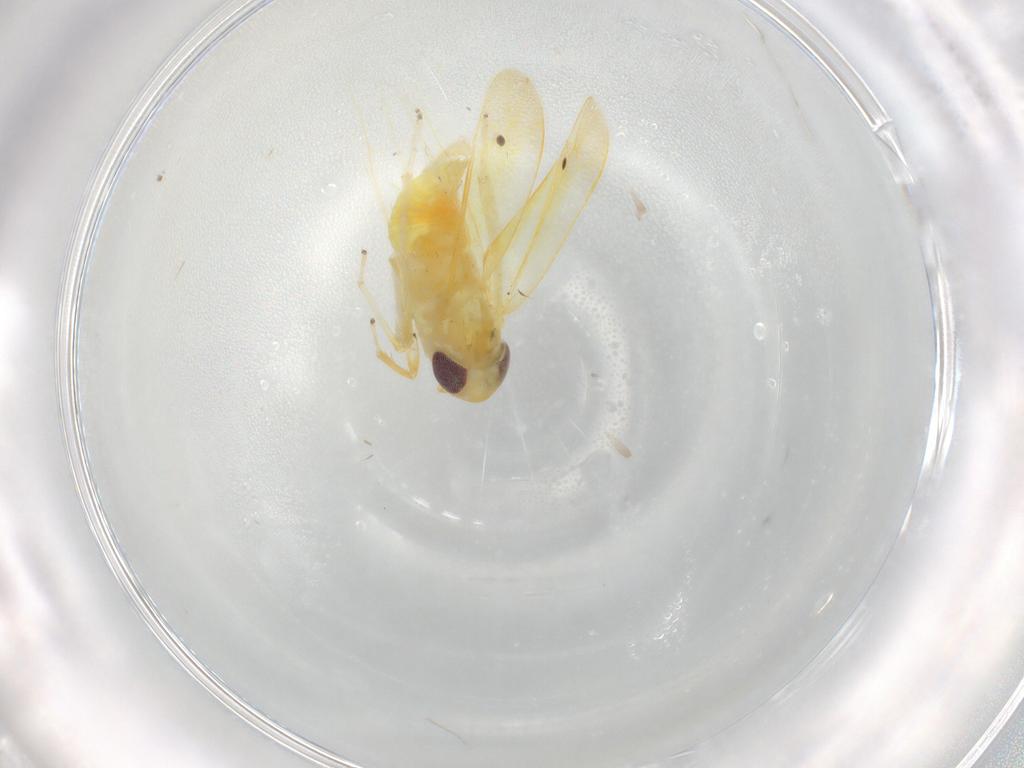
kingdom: Animalia
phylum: Arthropoda
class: Insecta
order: Hemiptera
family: Cicadellidae
